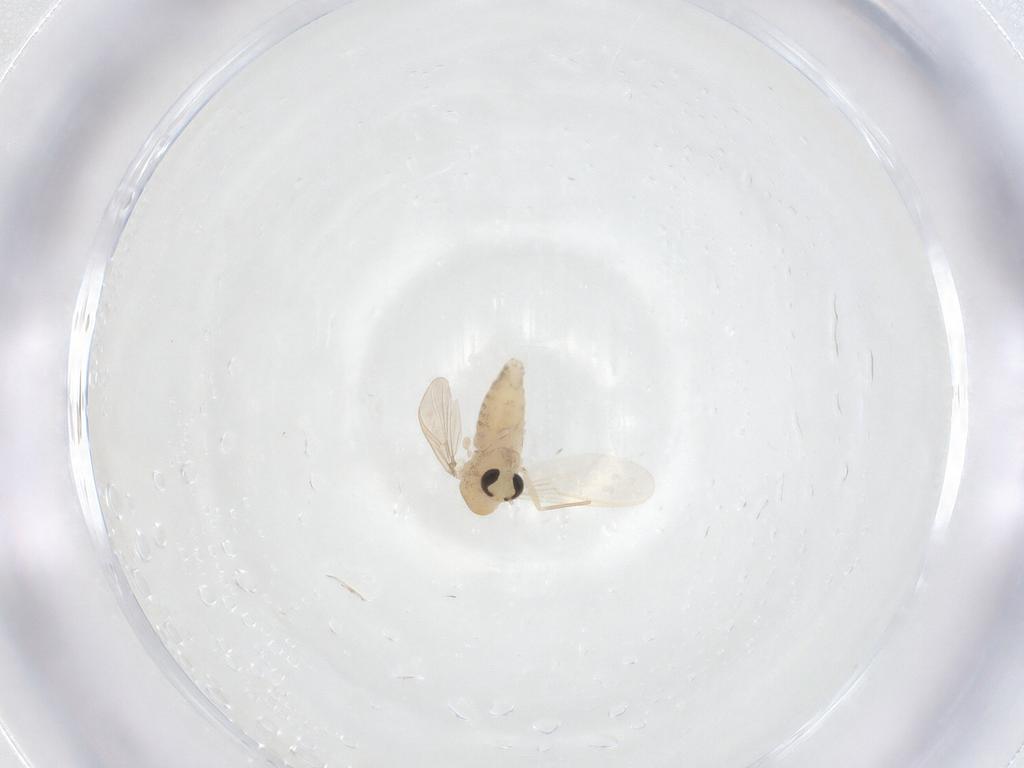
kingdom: Animalia
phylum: Arthropoda
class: Insecta
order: Diptera
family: Chironomidae
